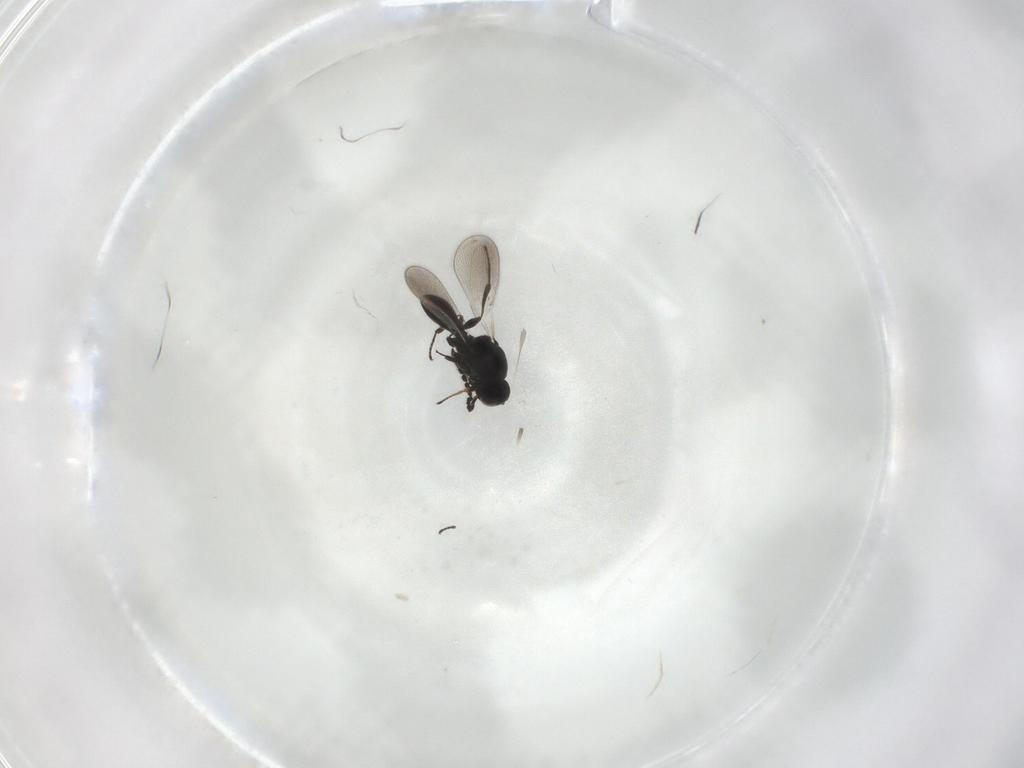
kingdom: Animalia
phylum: Arthropoda
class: Insecta
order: Hymenoptera
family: Platygastridae
